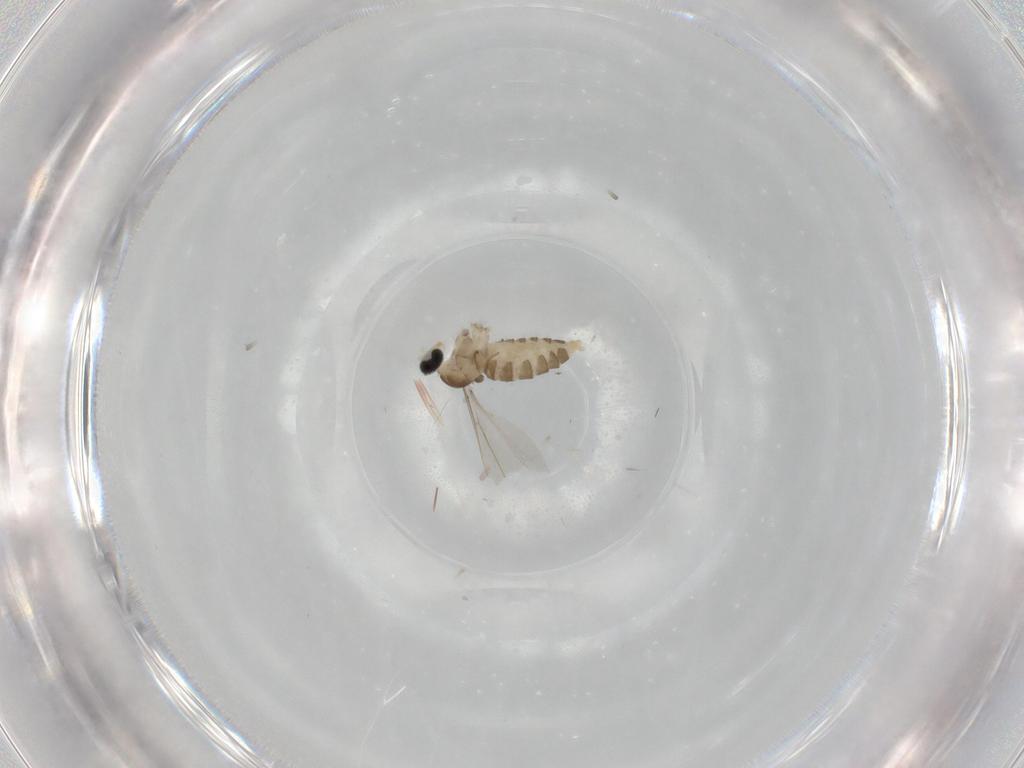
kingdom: Animalia
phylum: Arthropoda
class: Insecta
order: Diptera
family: Cecidomyiidae
